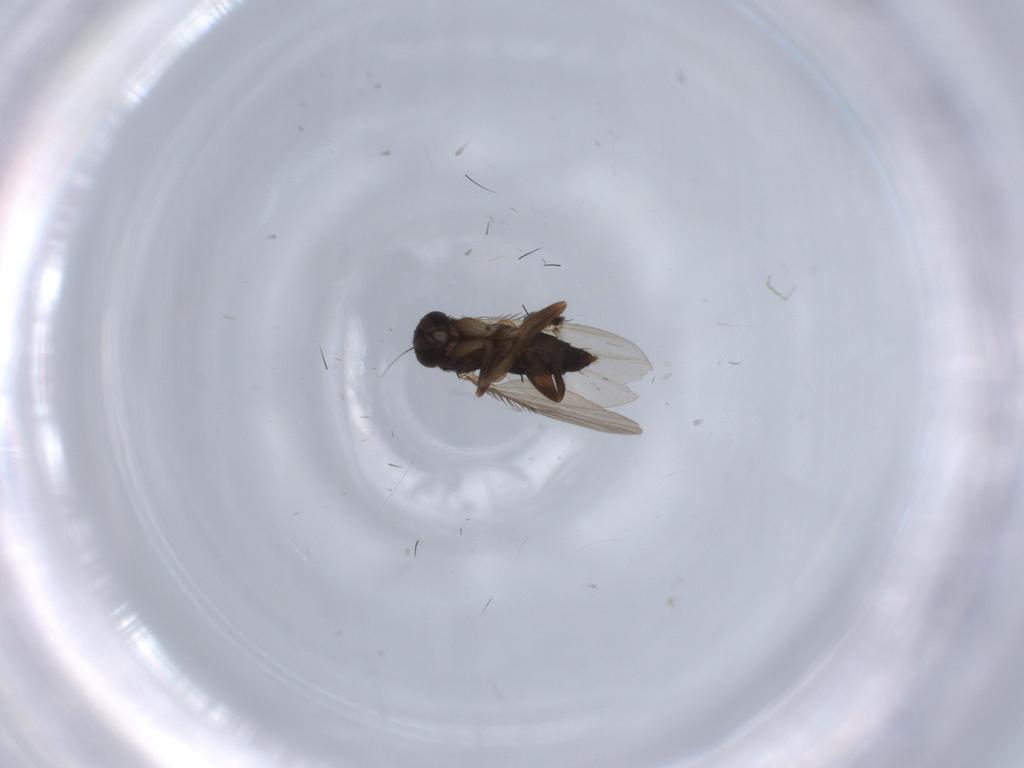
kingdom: Animalia
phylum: Arthropoda
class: Insecta
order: Diptera
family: Phoridae
